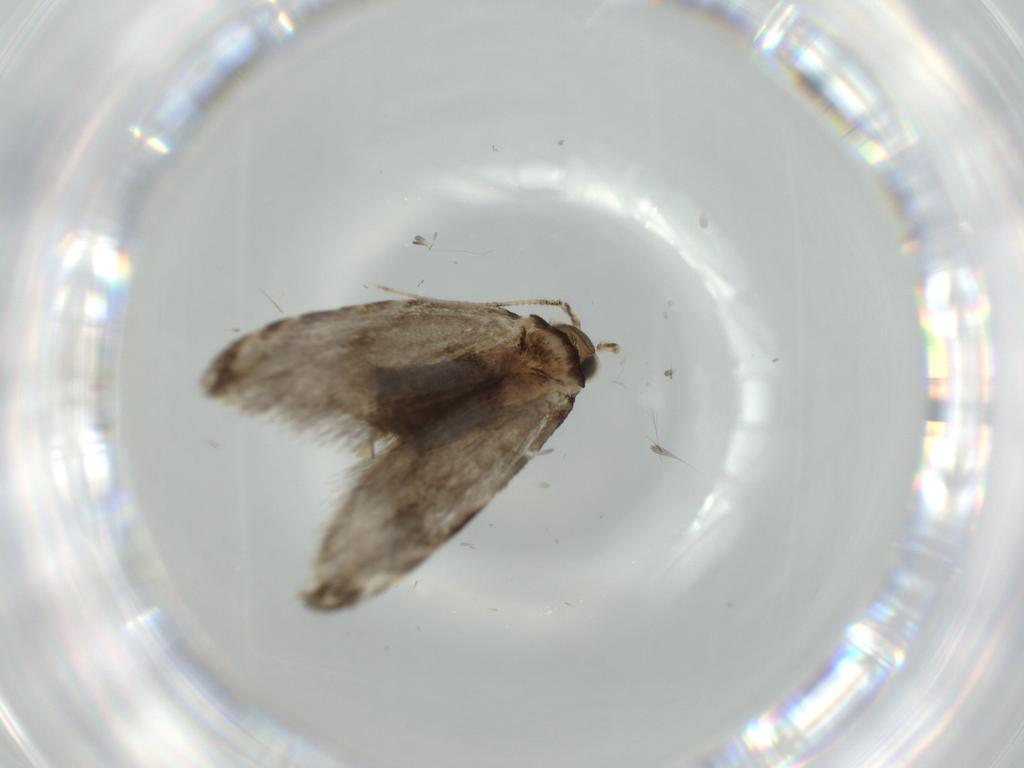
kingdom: Animalia
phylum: Arthropoda
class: Insecta
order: Lepidoptera
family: Tineidae
